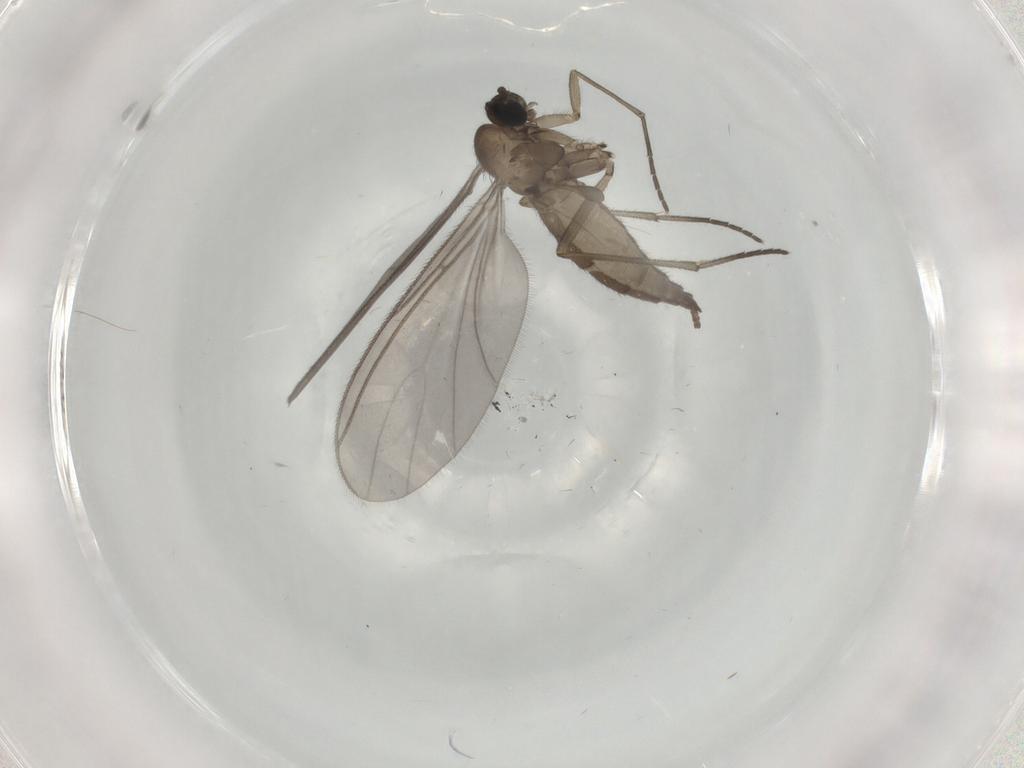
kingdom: Animalia
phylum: Arthropoda
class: Insecta
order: Diptera
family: Sciaridae
